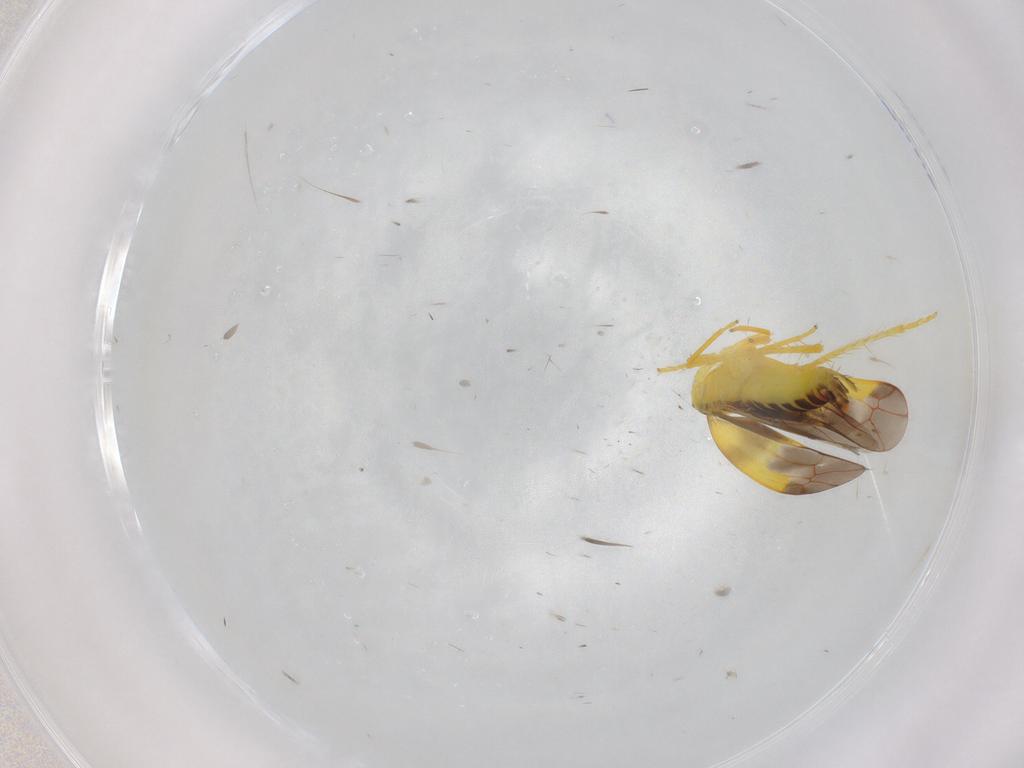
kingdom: Animalia
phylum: Arthropoda
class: Insecta
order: Hemiptera
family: Cicadellidae
